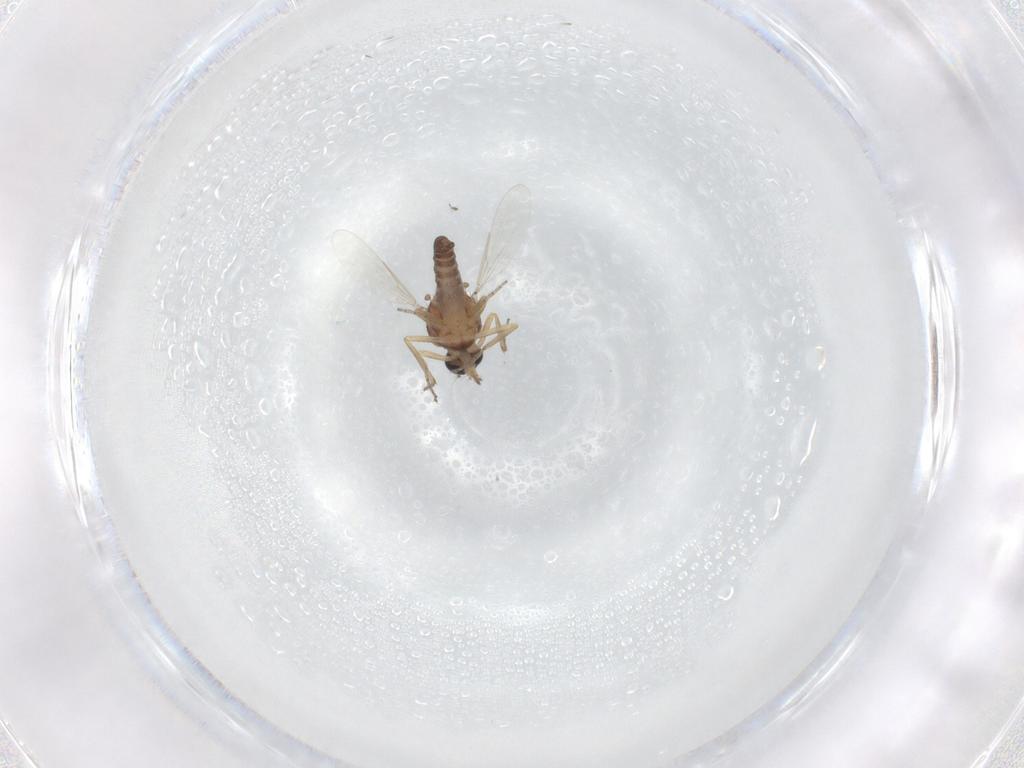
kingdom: Animalia
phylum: Arthropoda
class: Insecta
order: Diptera
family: Ceratopogonidae
